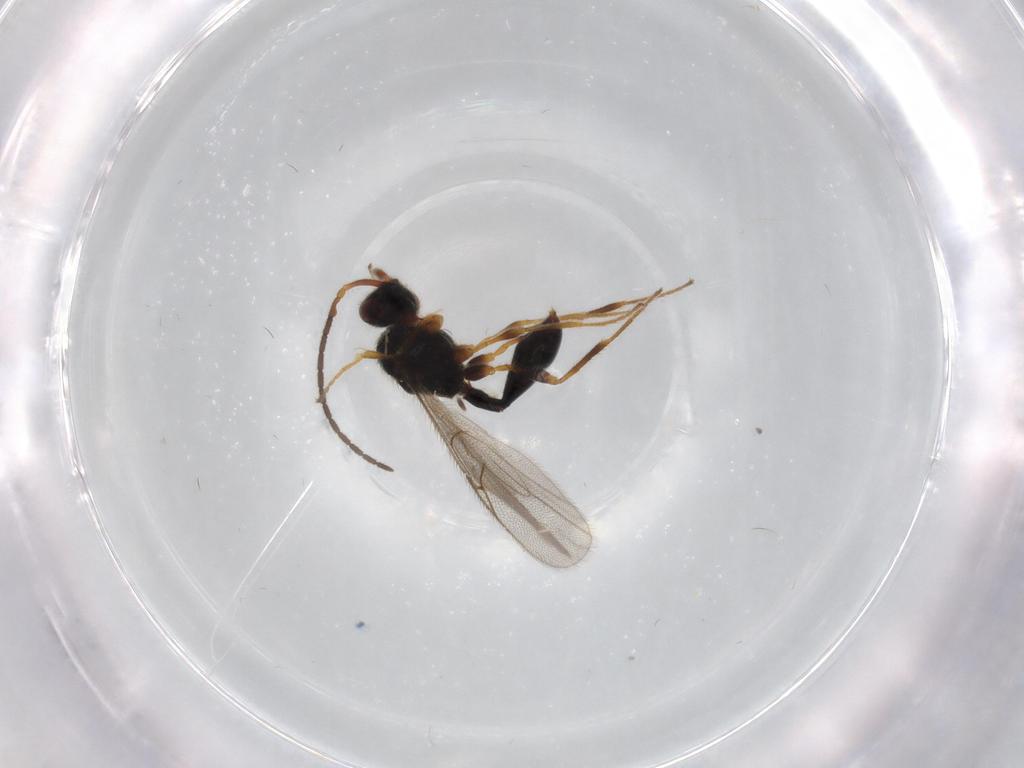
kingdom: Animalia
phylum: Arthropoda
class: Insecta
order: Hymenoptera
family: Diapriidae
